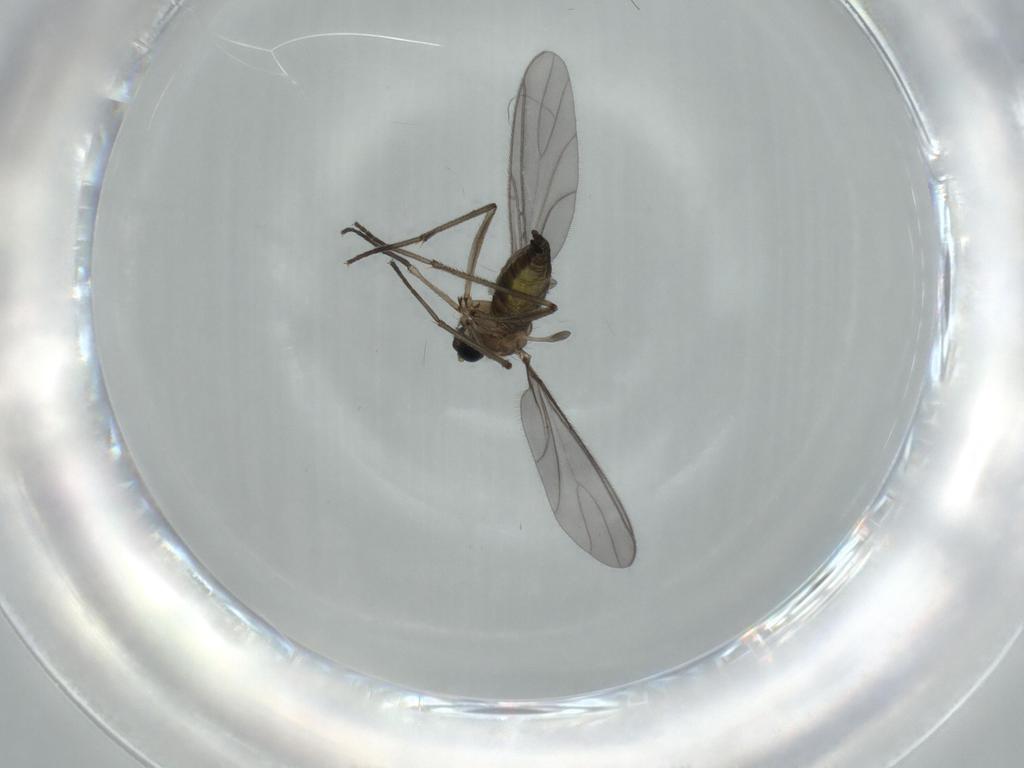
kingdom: Animalia
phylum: Arthropoda
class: Insecta
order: Diptera
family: Sciaridae
